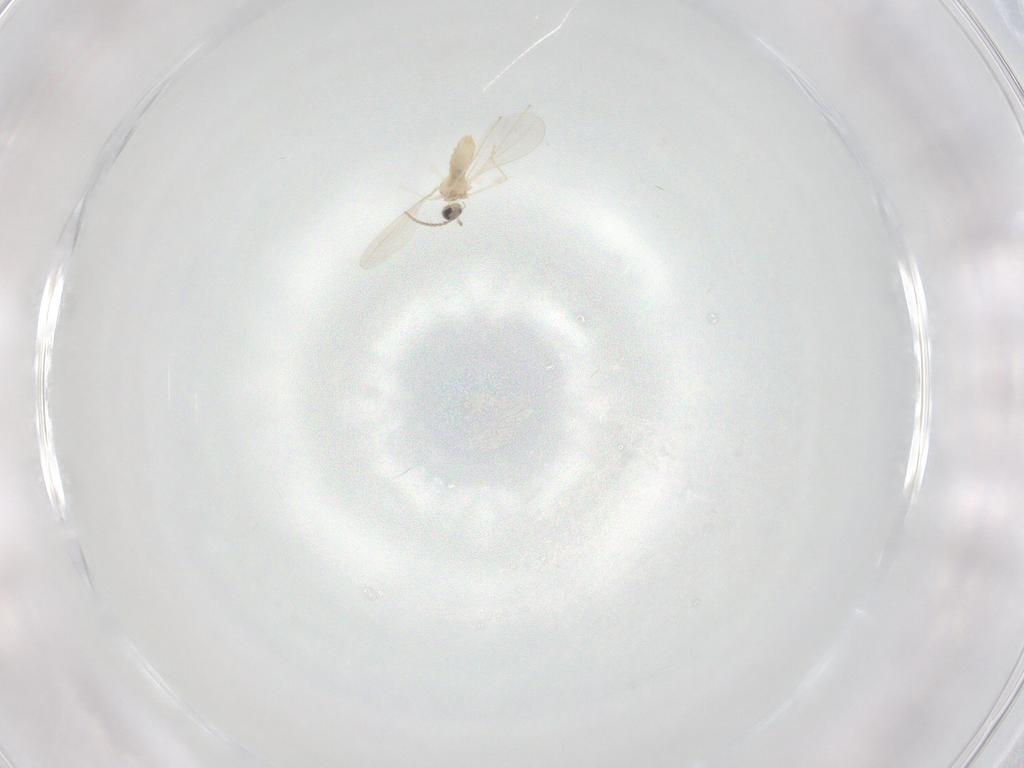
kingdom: Animalia
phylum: Arthropoda
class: Insecta
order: Diptera
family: Cecidomyiidae
